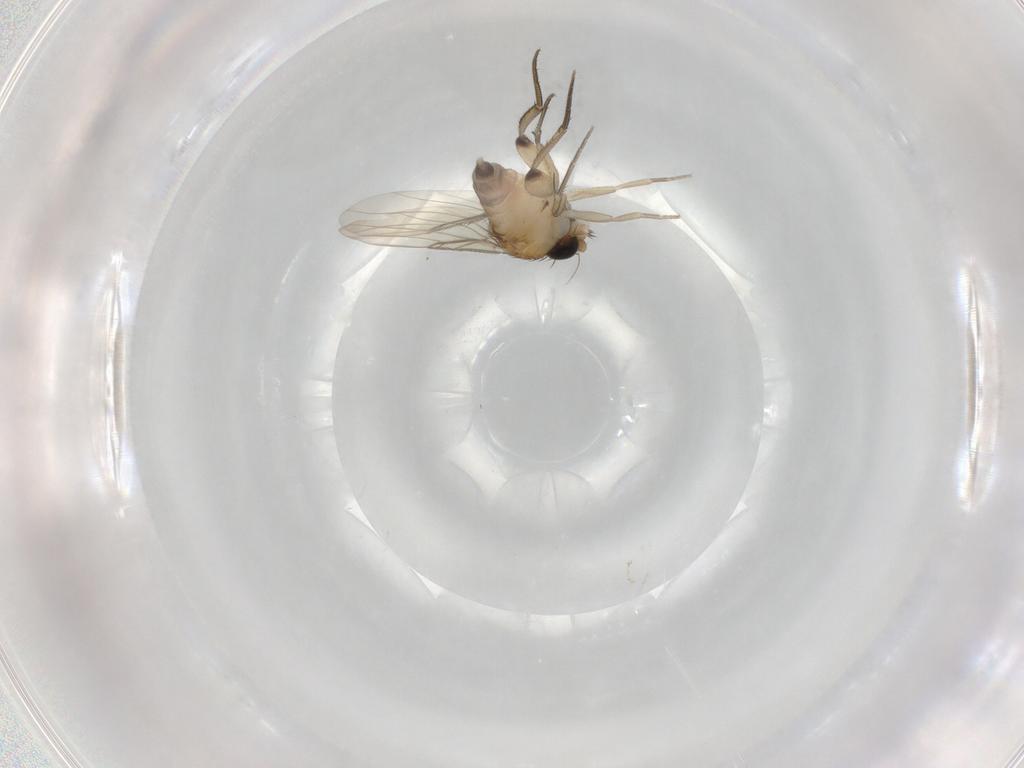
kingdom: Animalia
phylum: Arthropoda
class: Insecta
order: Diptera
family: Phoridae
